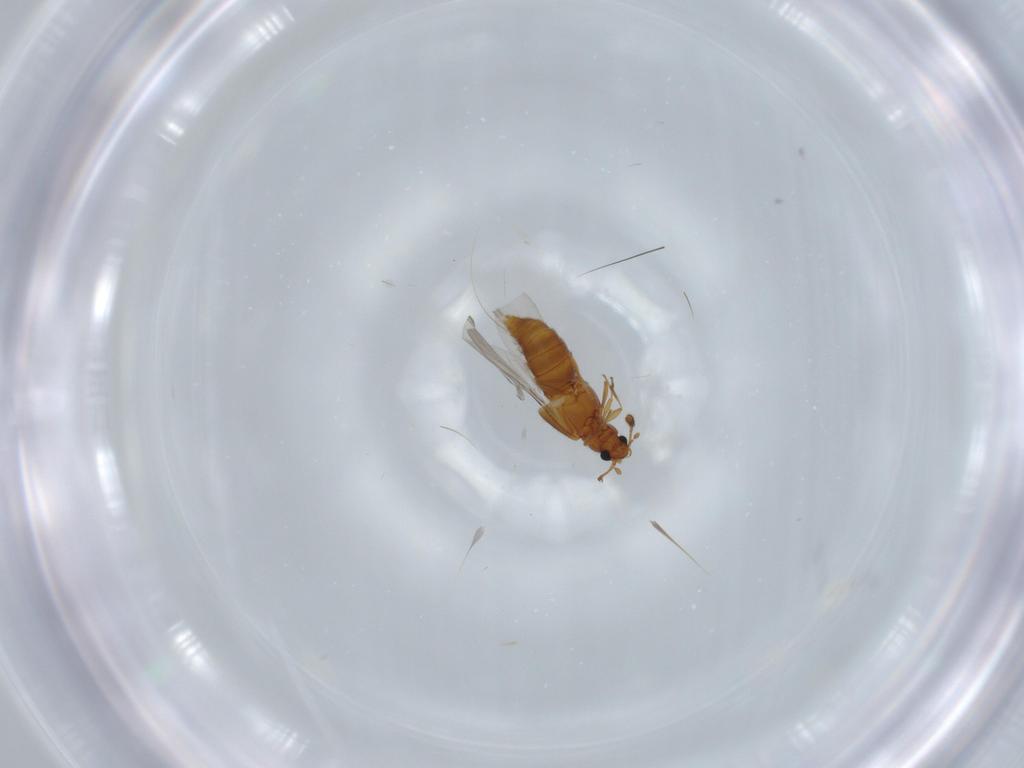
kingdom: Animalia
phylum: Arthropoda
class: Insecta
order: Coleoptera
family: Staphylinidae
